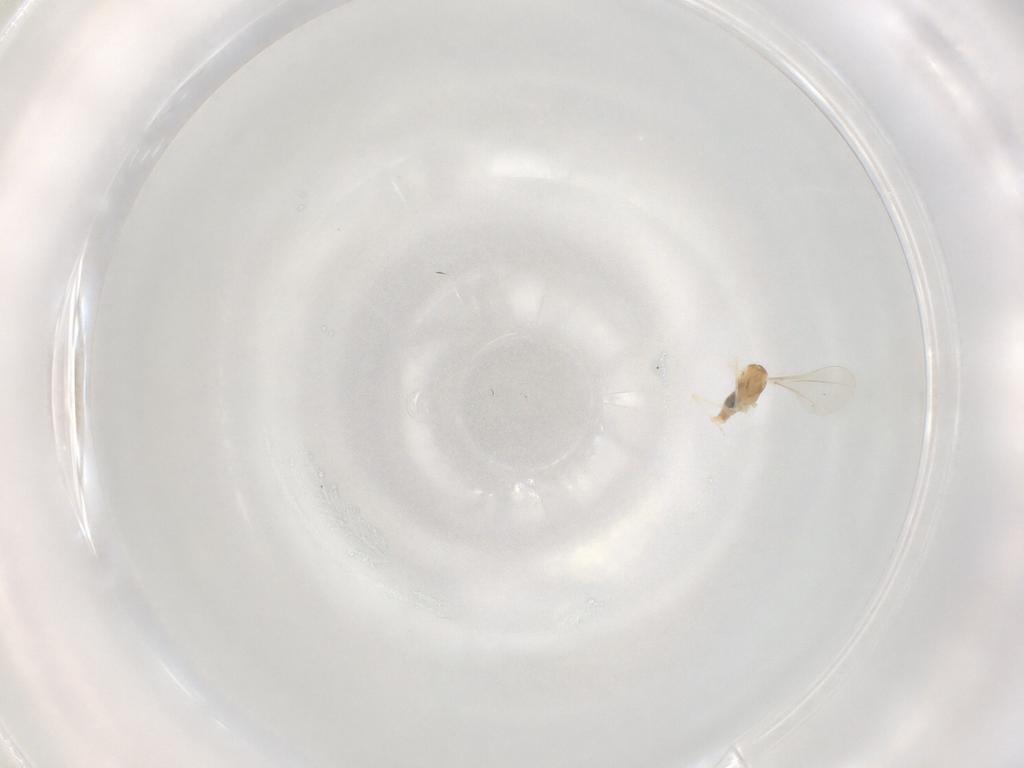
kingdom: Animalia
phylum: Arthropoda
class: Insecta
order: Diptera
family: Cecidomyiidae
